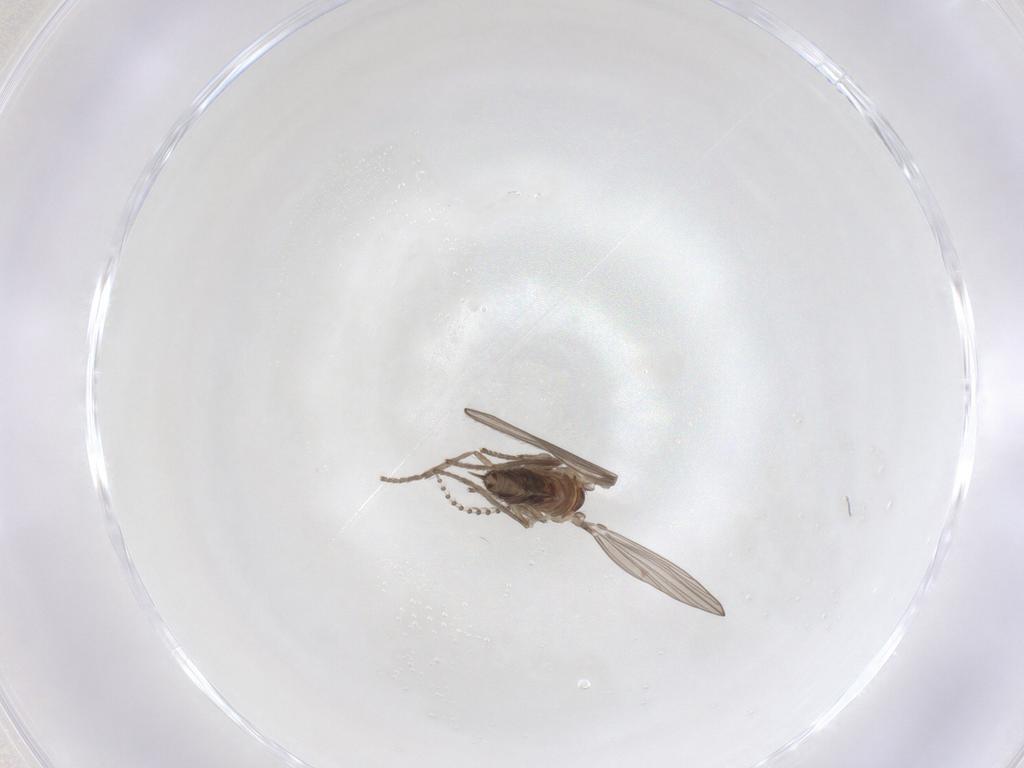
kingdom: Animalia
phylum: Arthropoda
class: Insecta
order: Diptera
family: Psychodidae
